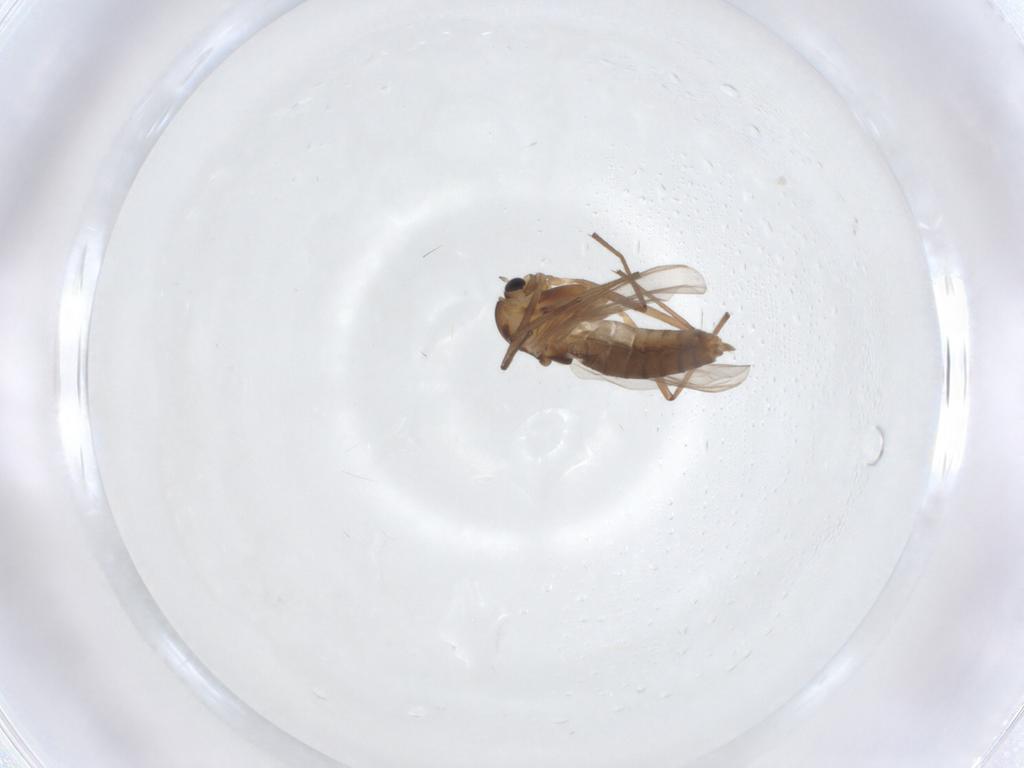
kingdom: Animalia
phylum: Arthropoda
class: Insecta
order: Diptera
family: Chironomidae
